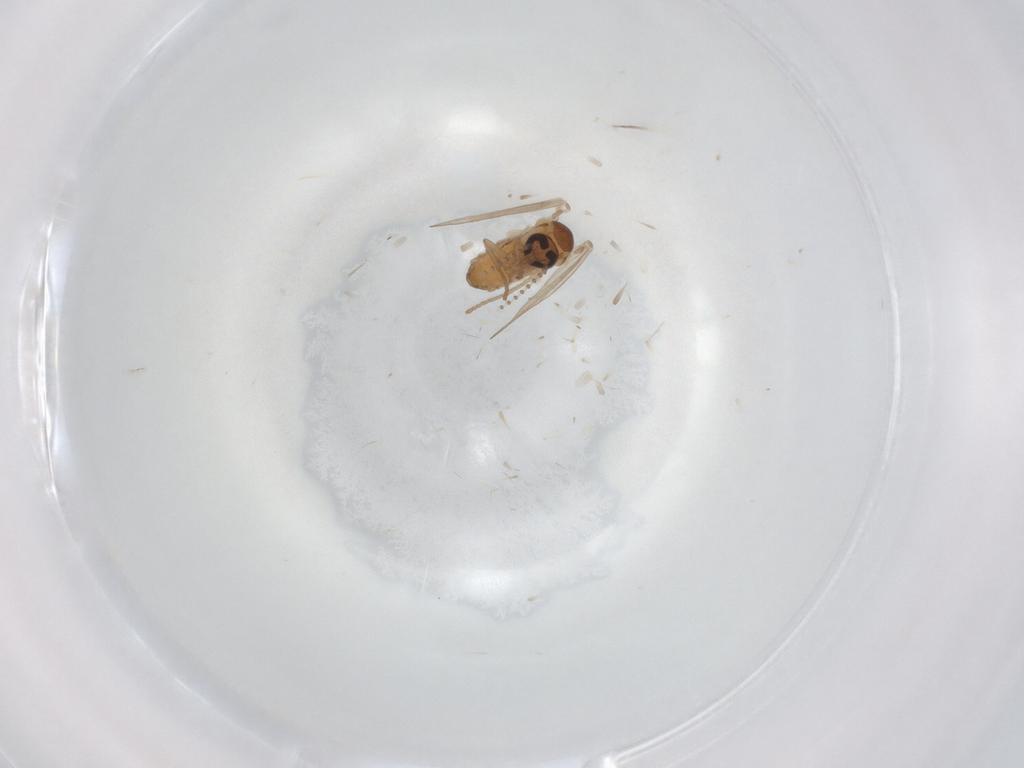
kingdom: Animalia
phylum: Arthropoda
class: Insecta
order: Diptera
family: Psychodidae
